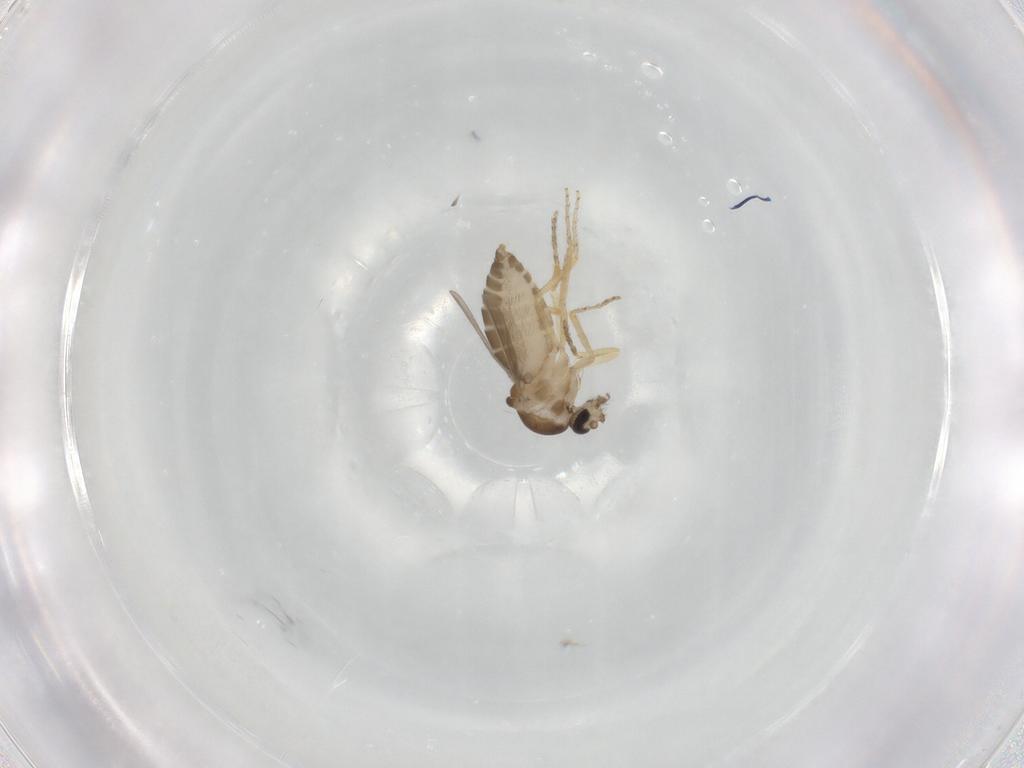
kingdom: Animalia
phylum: Arthropoda
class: Insecta
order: Diptera
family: Ceratopogonidae
